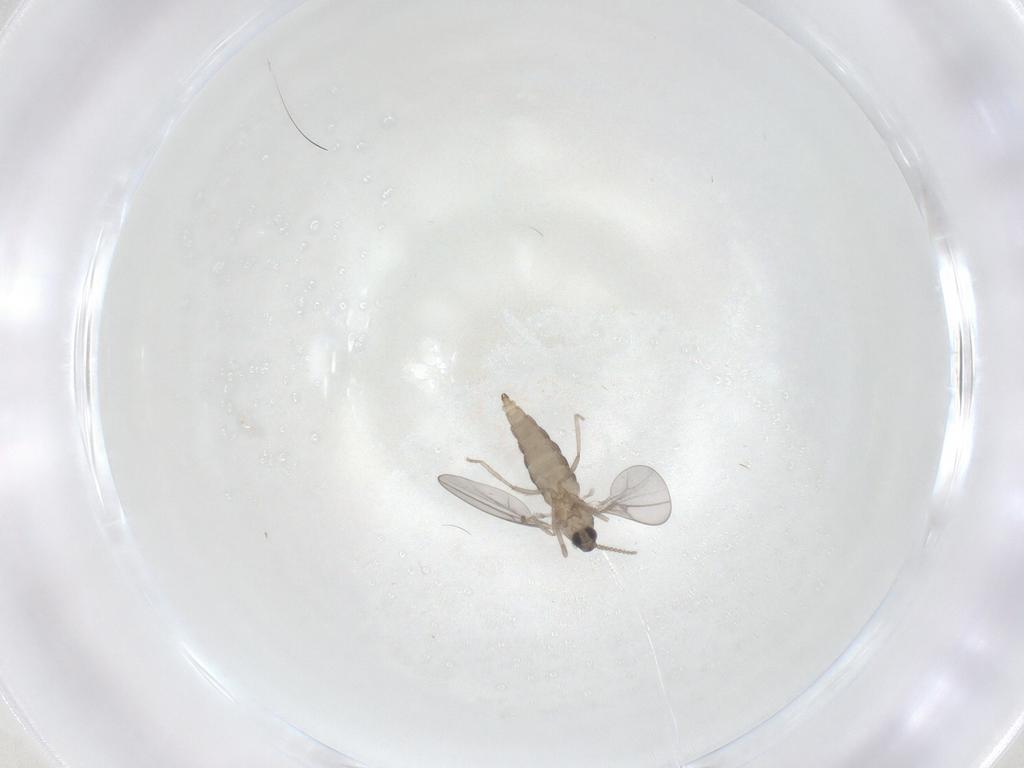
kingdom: Animalia
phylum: Arthropoda
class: Insecta
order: Diptera
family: Cecidomyiidae
